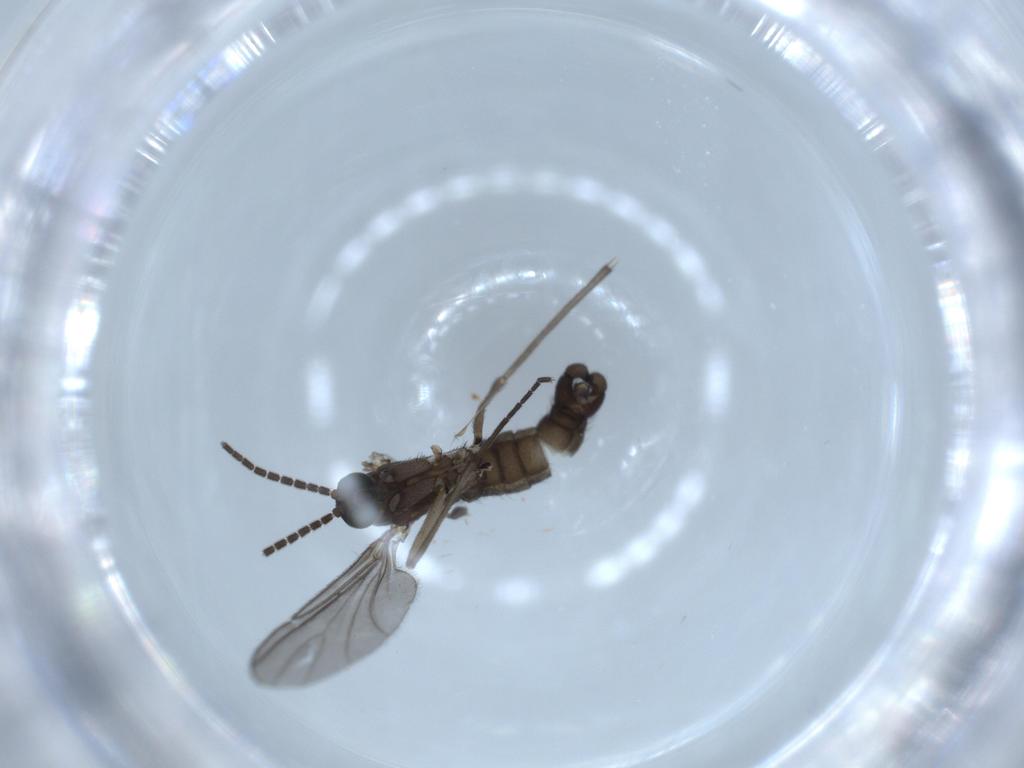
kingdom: Animalia
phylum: Arthropoda
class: Insecta
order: Diptera
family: Sciaridae
